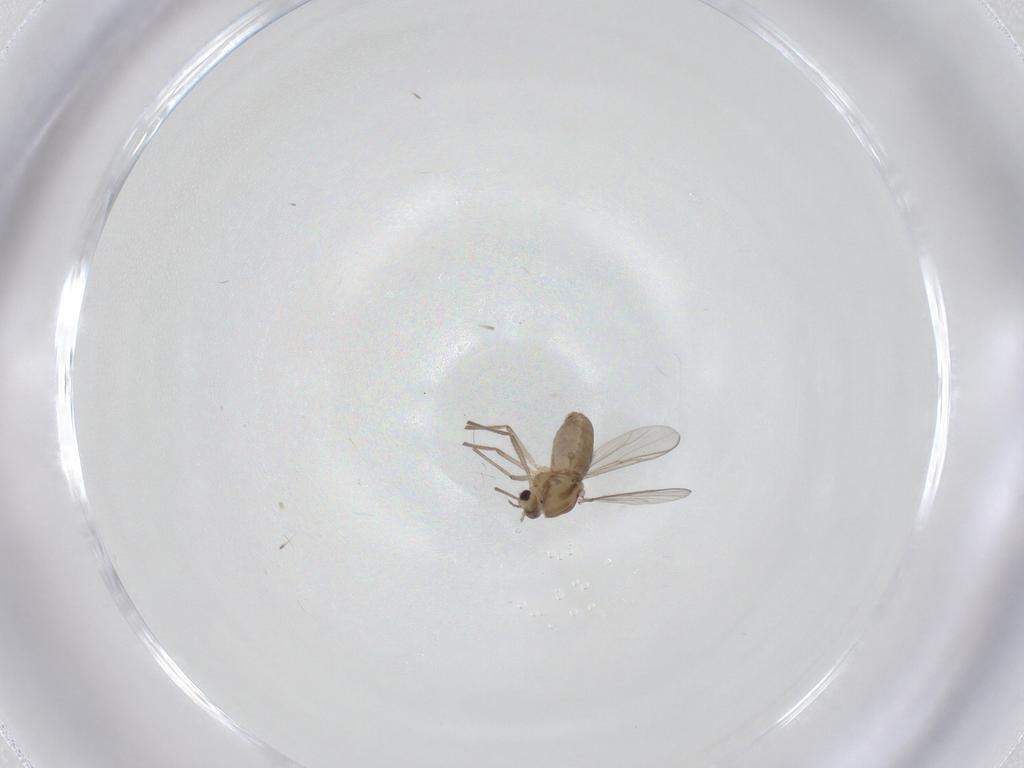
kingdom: Animalia
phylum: Arthropoda
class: Insecta
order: Diptera
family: Chironomidae
